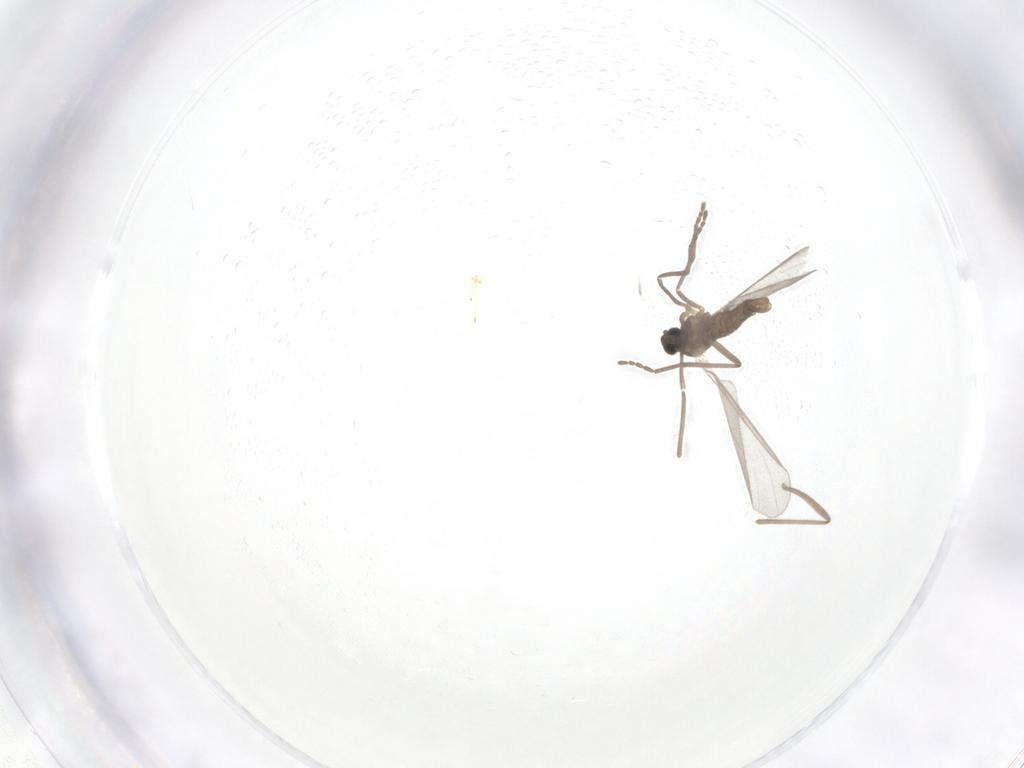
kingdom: Animalia
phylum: Arthropoda
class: Insecta
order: Diptera
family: Cecidomyiidae
